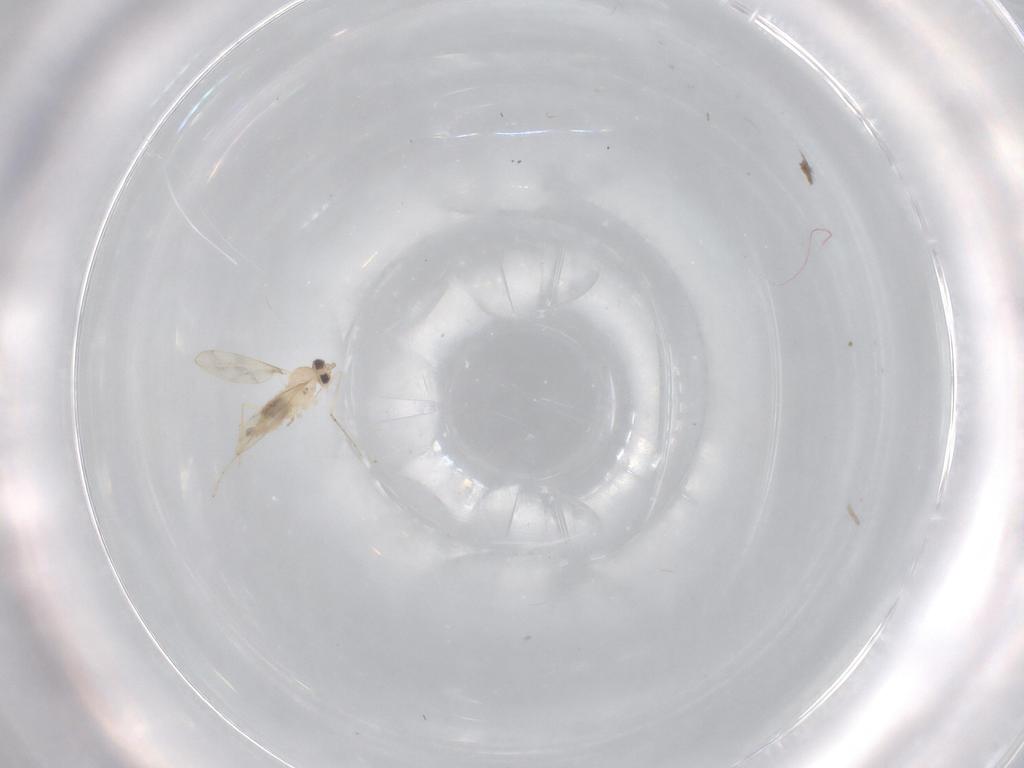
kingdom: Animalia
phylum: Arthropoda
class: Insecta
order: Diptera
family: Cecidomyiidae
